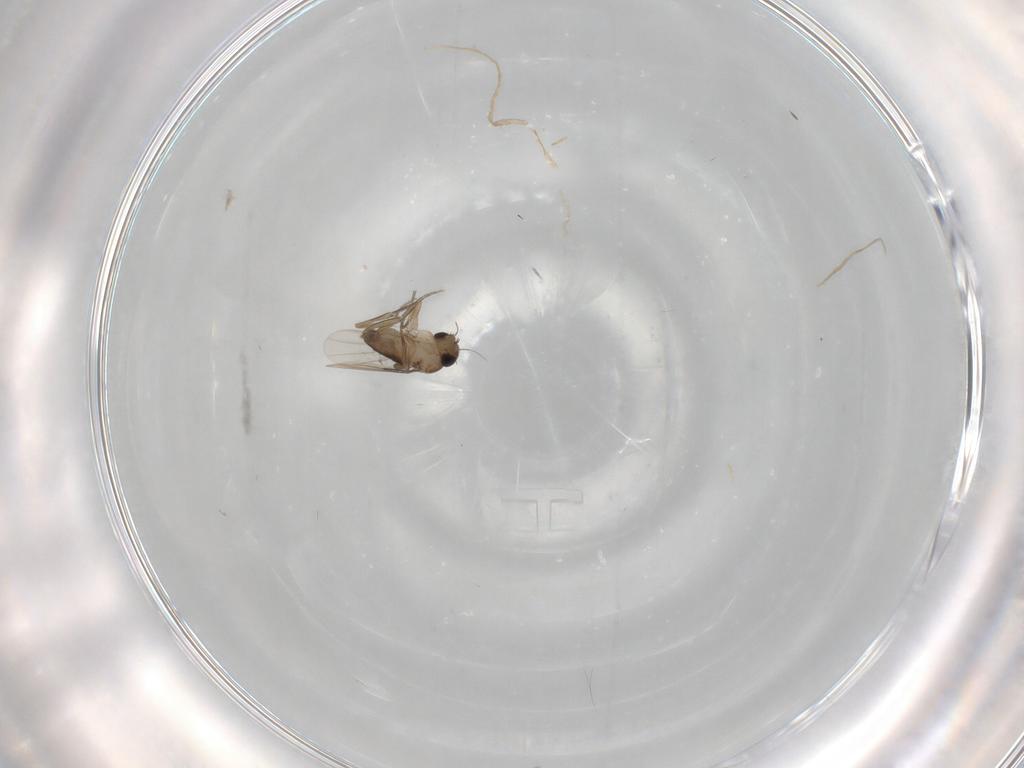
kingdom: Animalia
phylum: Arthropoda
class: Insecta
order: Diptera
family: Phoridae
